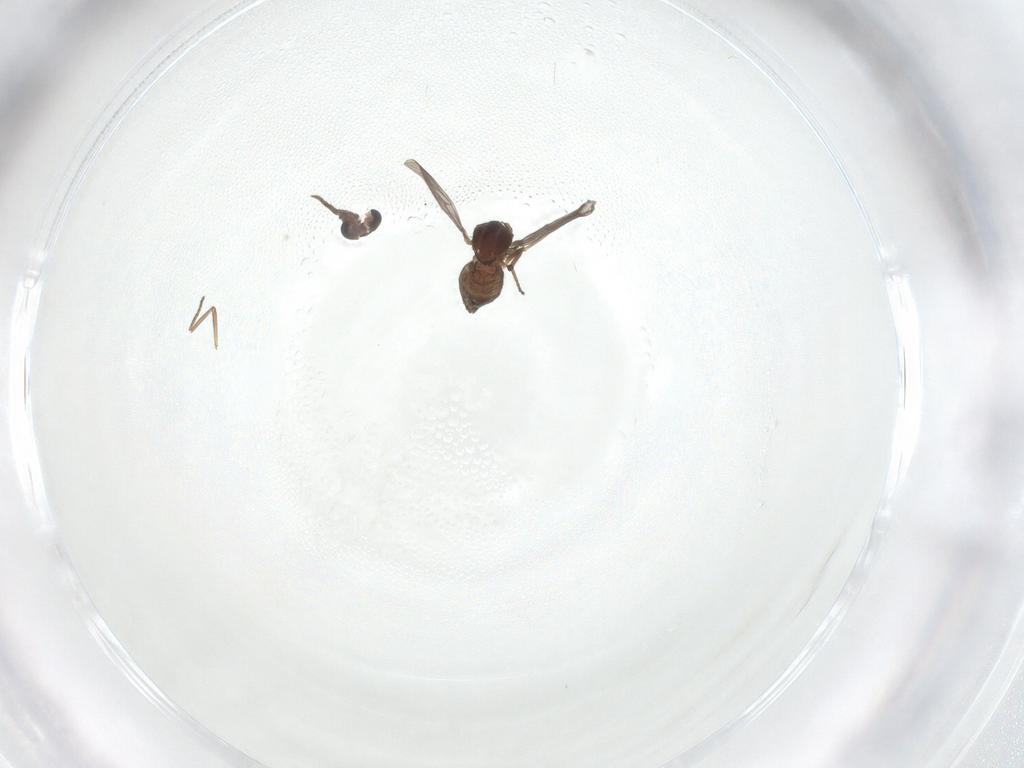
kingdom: Animalia
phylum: Arthropoda
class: Insecta
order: Diptera
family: Ceratopogonidae
